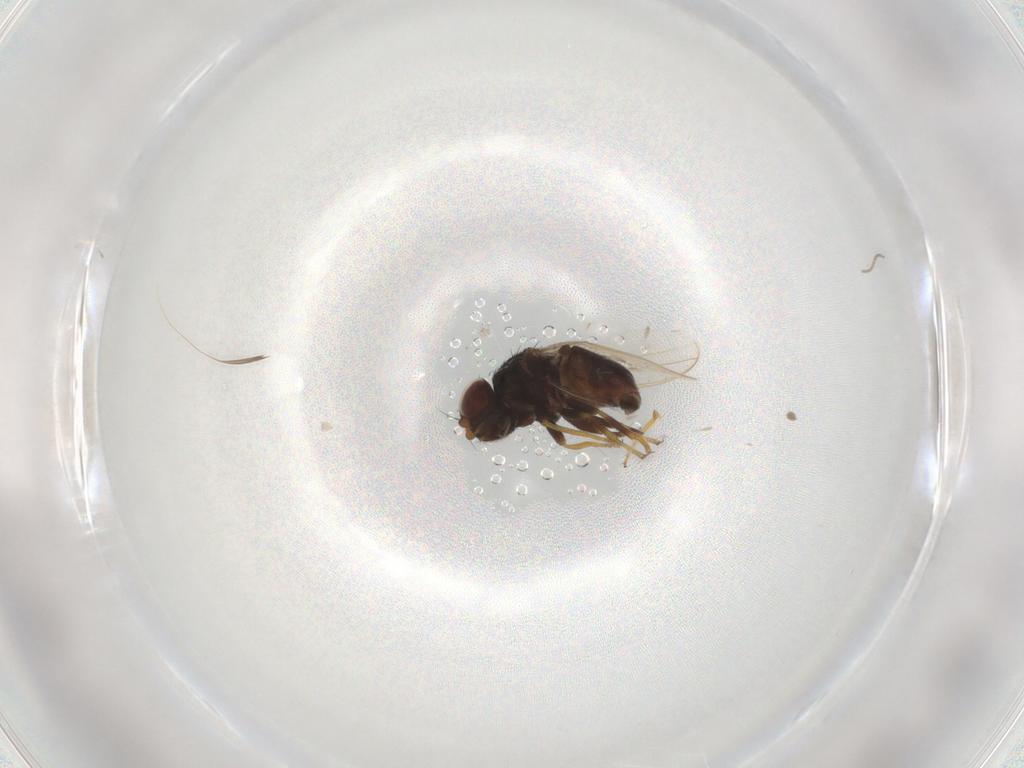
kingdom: Animalia
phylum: Arthropoda
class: Insecta
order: Diptera
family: Chloropidae
